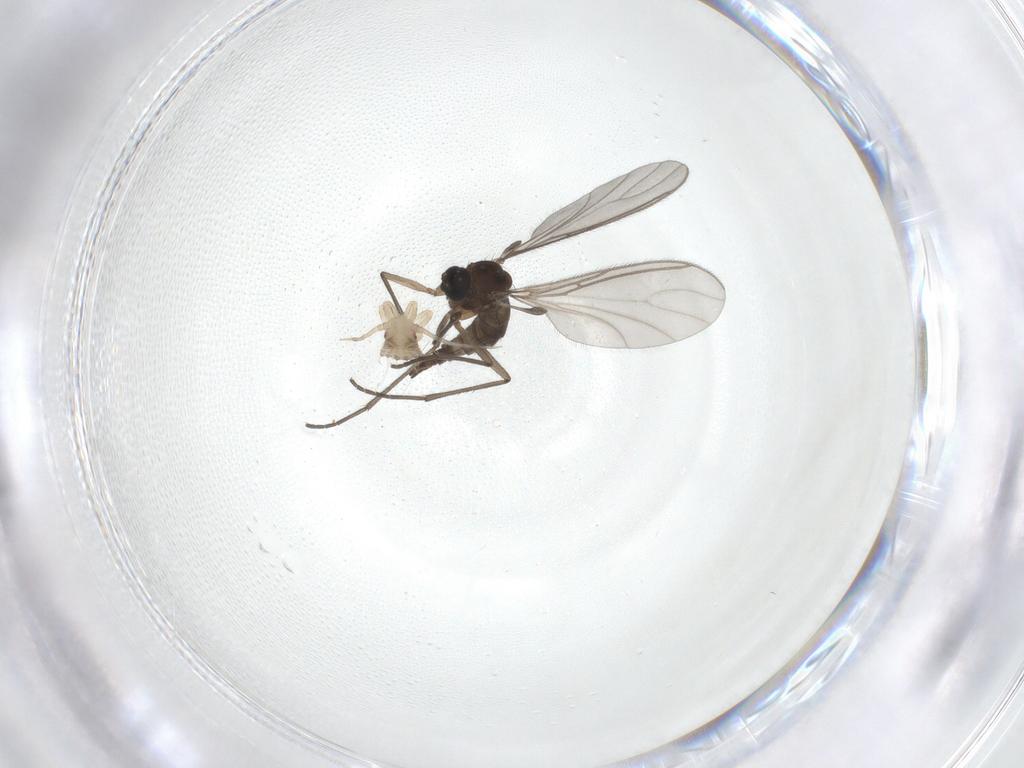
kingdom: Animalia
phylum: Arthropoda
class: Insecta
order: Diptera
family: Sciaridae
